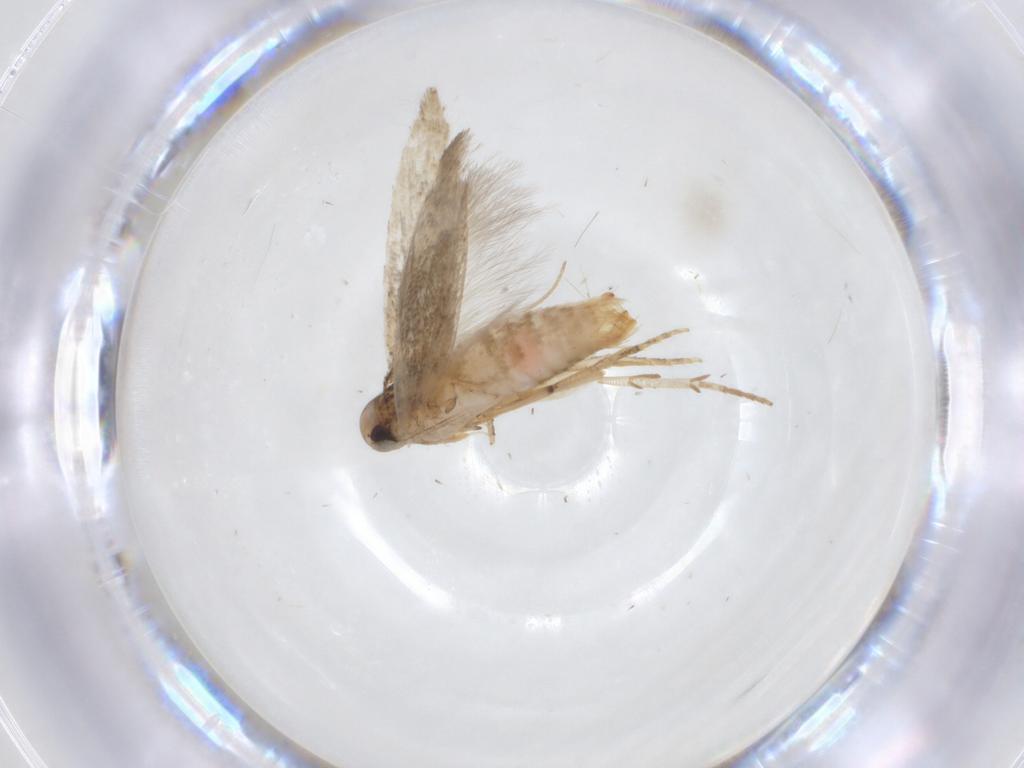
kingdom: Animalia
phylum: Arthropoda
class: Insecta
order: Lepidoptera
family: Gelechiidae
